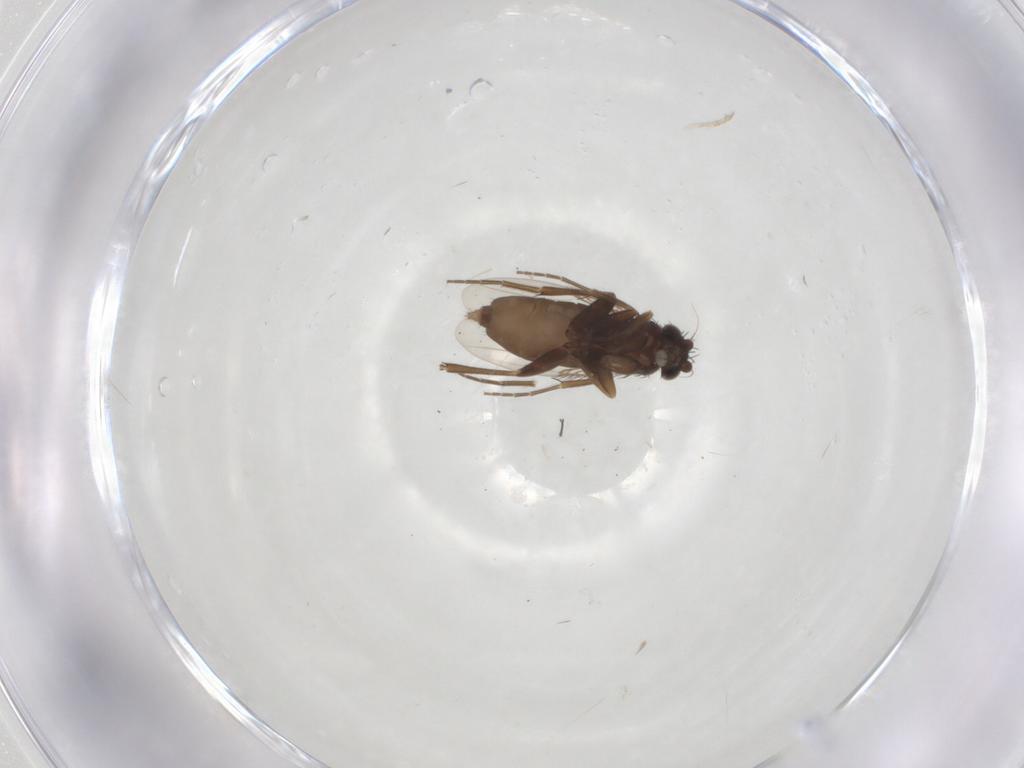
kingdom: Animalia
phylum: Arthropoda
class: Insecta
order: Diptera
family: Phoridae
